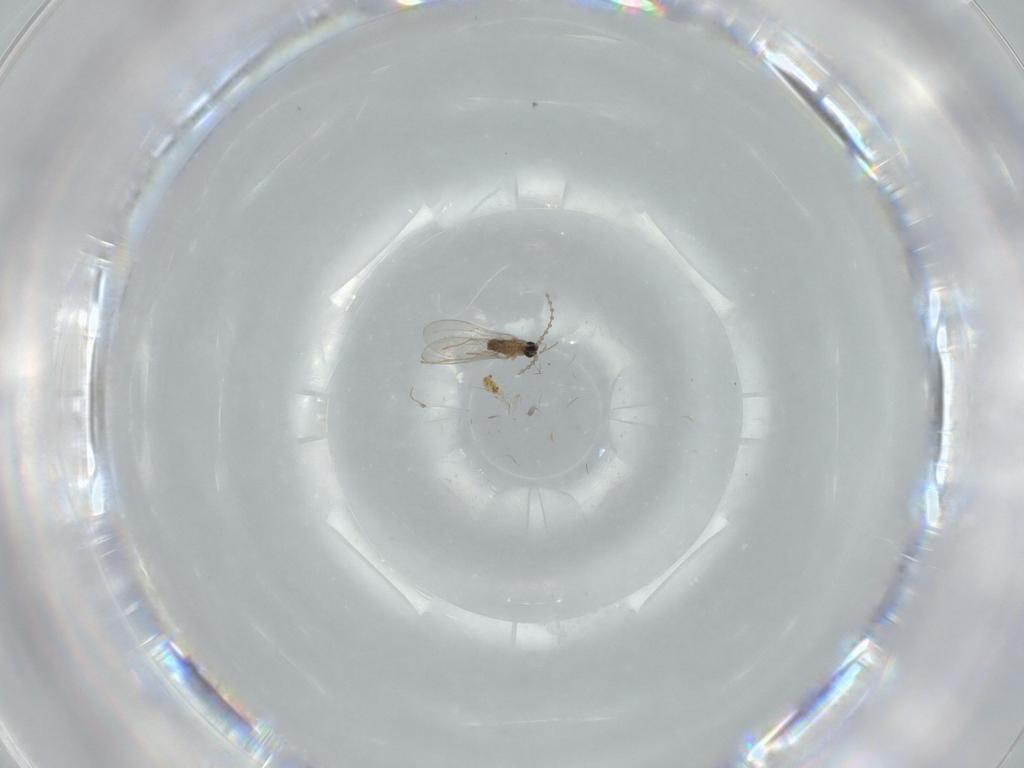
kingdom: Animalia
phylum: Arthropoda
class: Insecta
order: Diptera
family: Cecidomyiidae
